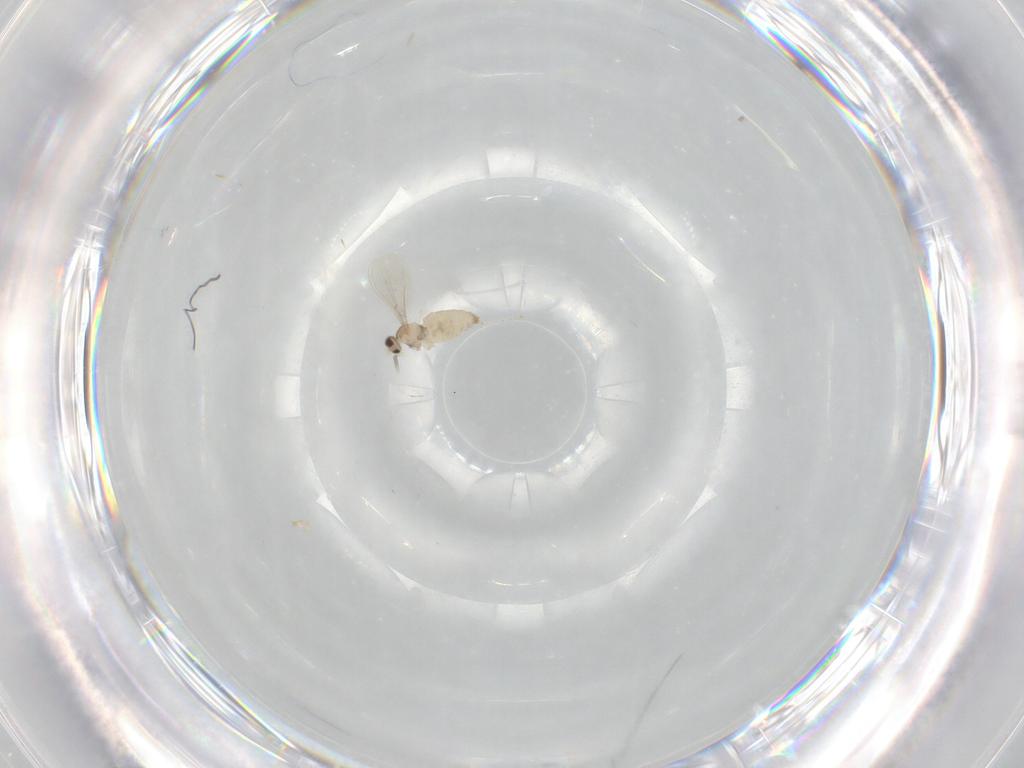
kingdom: Animalia
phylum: Arthropoda
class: Insecta
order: Diptera
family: Cecidomyiidae
